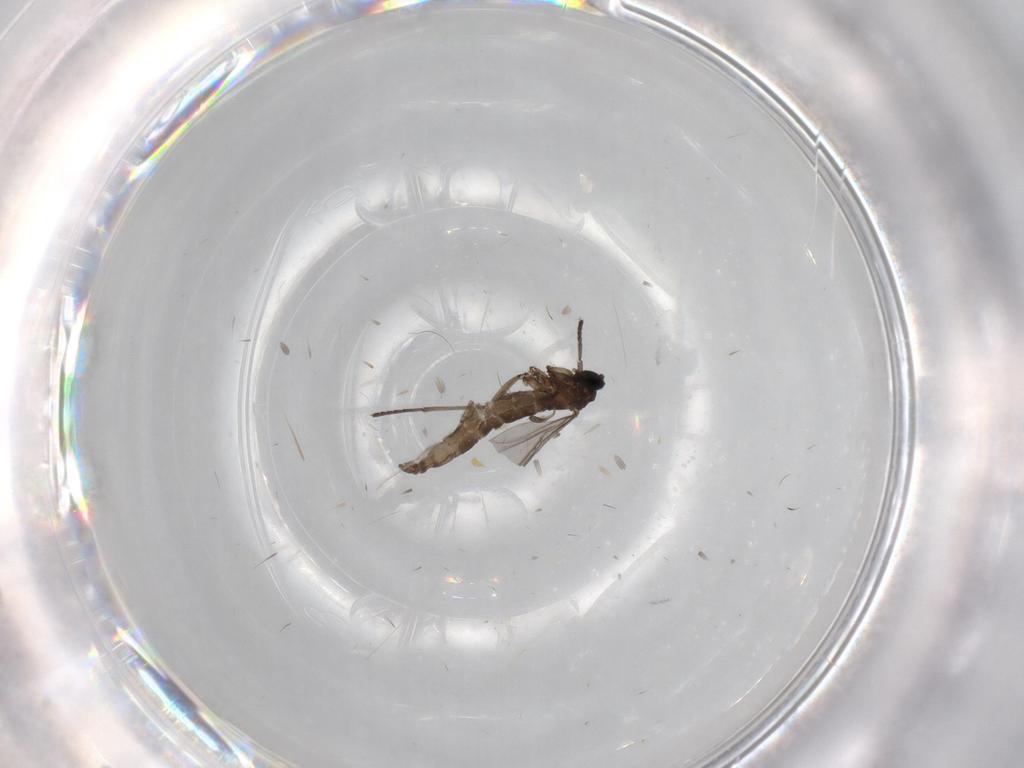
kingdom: Animalia
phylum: Arthropoda
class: Insecta
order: Diptera
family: Chironomidae
